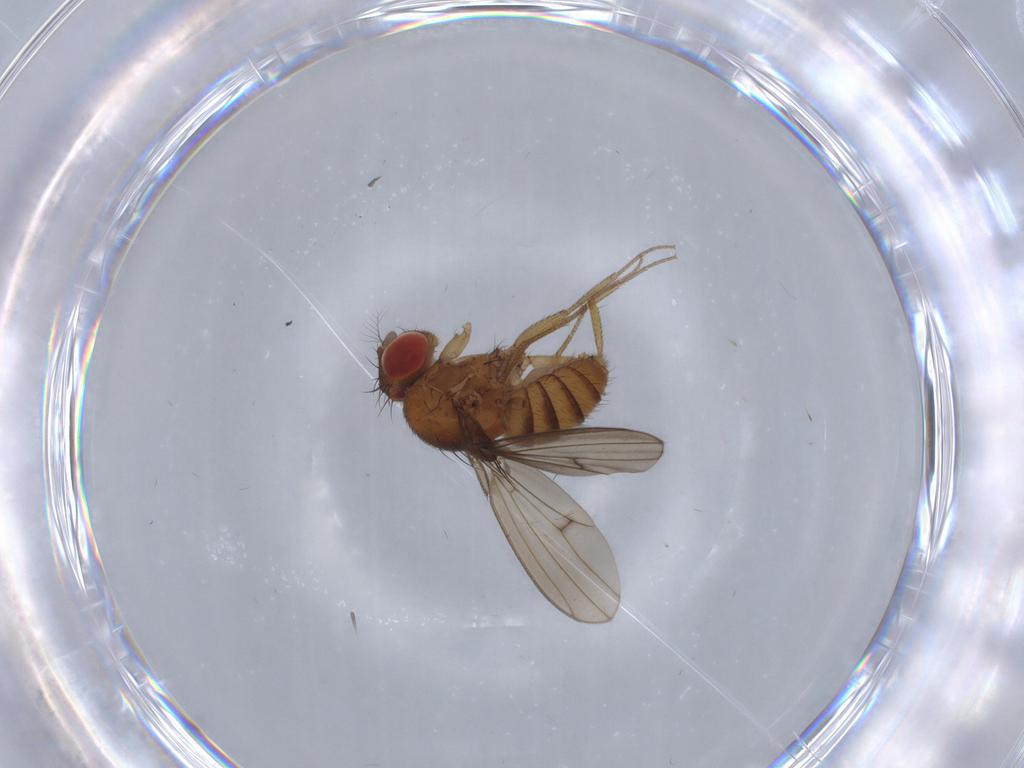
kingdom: Animalia
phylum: Arthropoda
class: Insecta
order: Diptera
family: Drosophilidae
